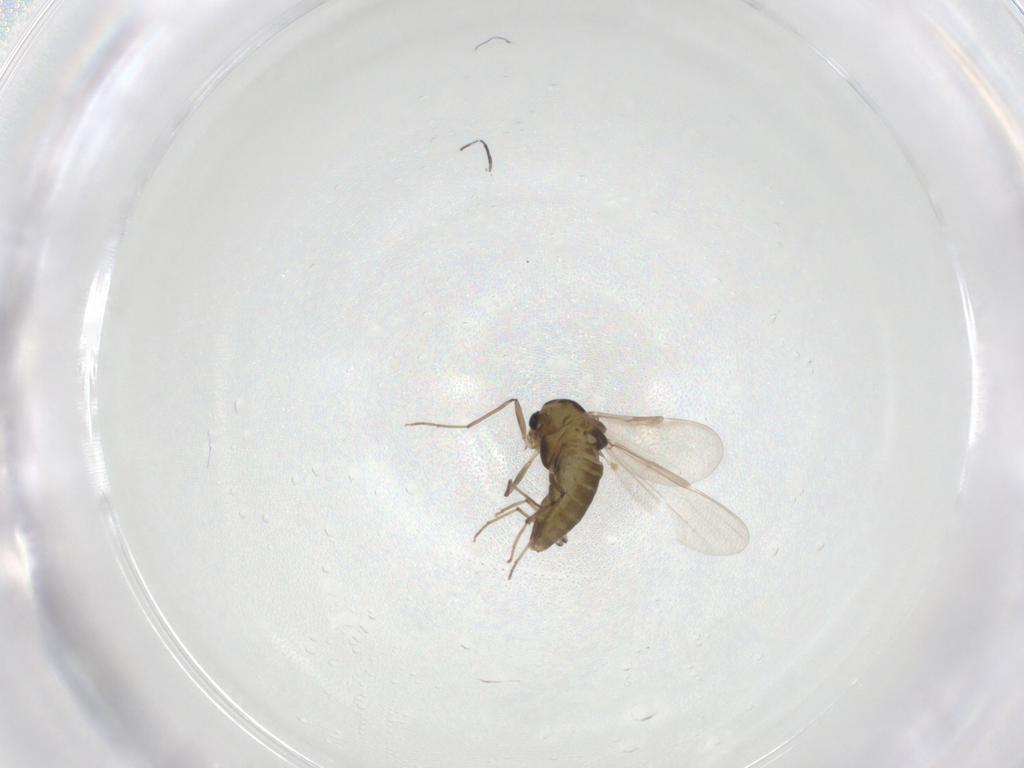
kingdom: Animalia
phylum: Arthropoda
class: Insecta
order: Diptera
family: Chironomidae
